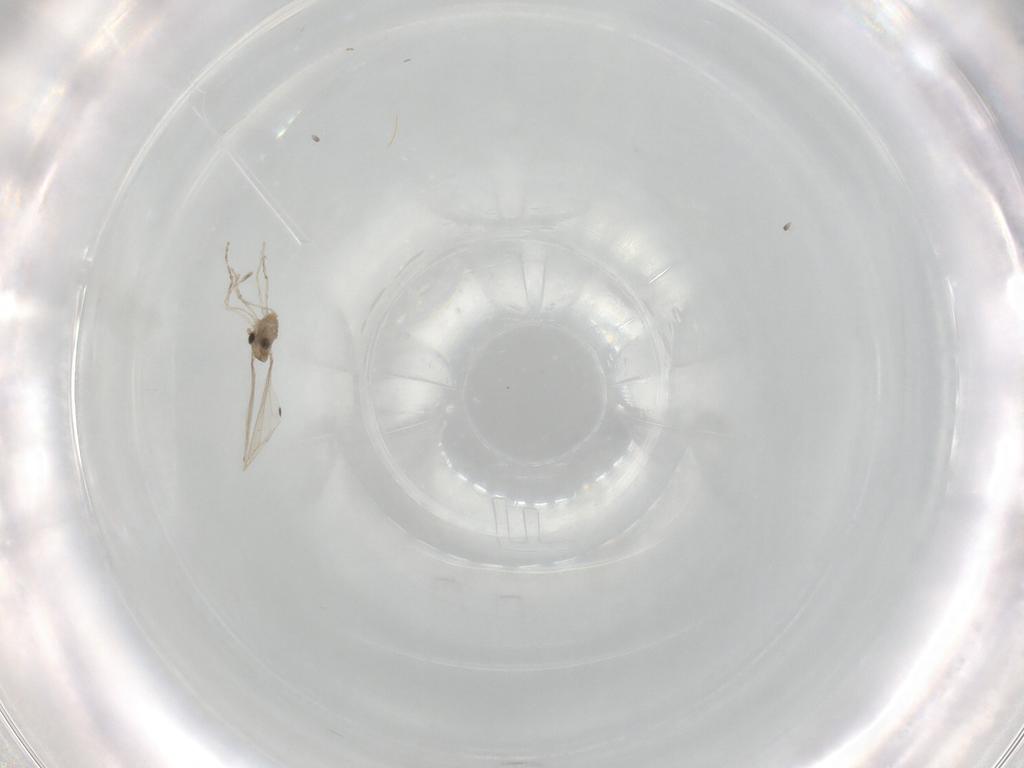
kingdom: Animalia
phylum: Arthropoda
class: Insecta
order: Diptera
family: Cecidomyiidae
